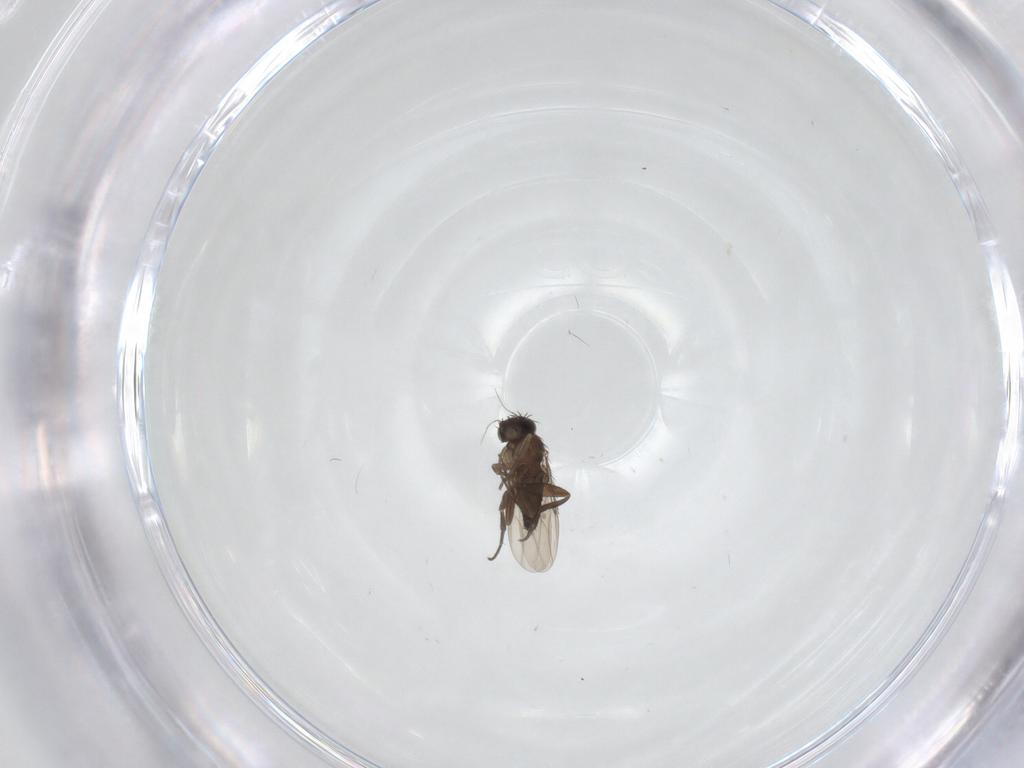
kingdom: Animalia
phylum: Arthropoda
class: Insecta
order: Diptera
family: Phoridae
